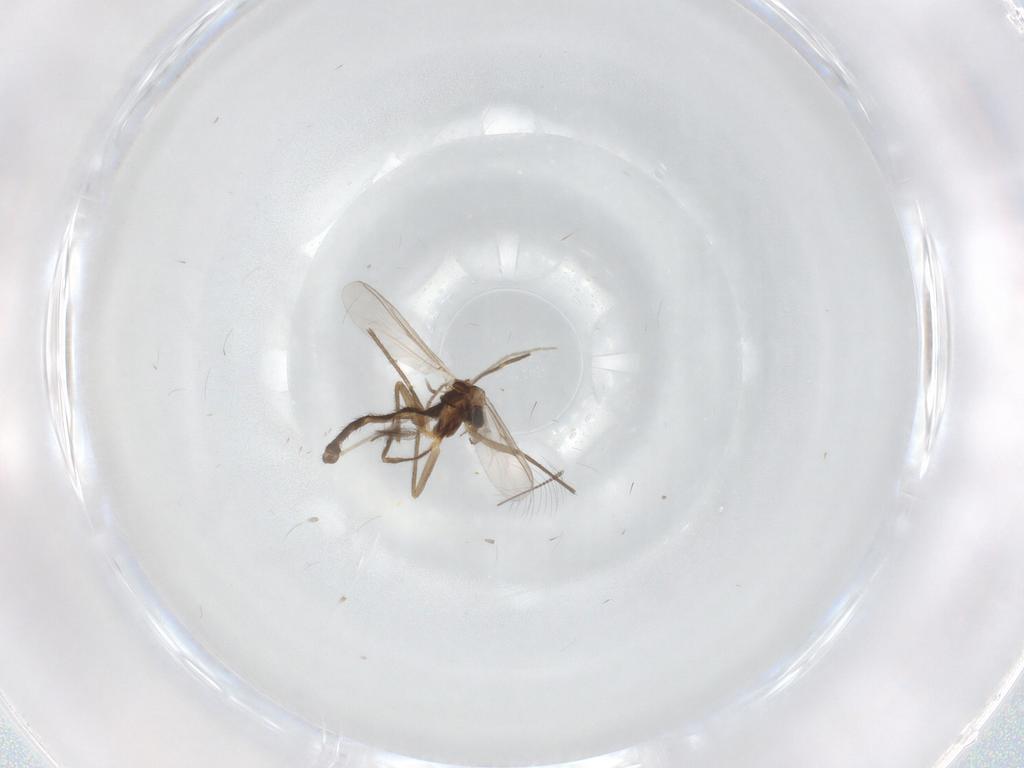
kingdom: Animalia
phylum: Arthropoda
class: Insecta
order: Diptera
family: Chironomidae
